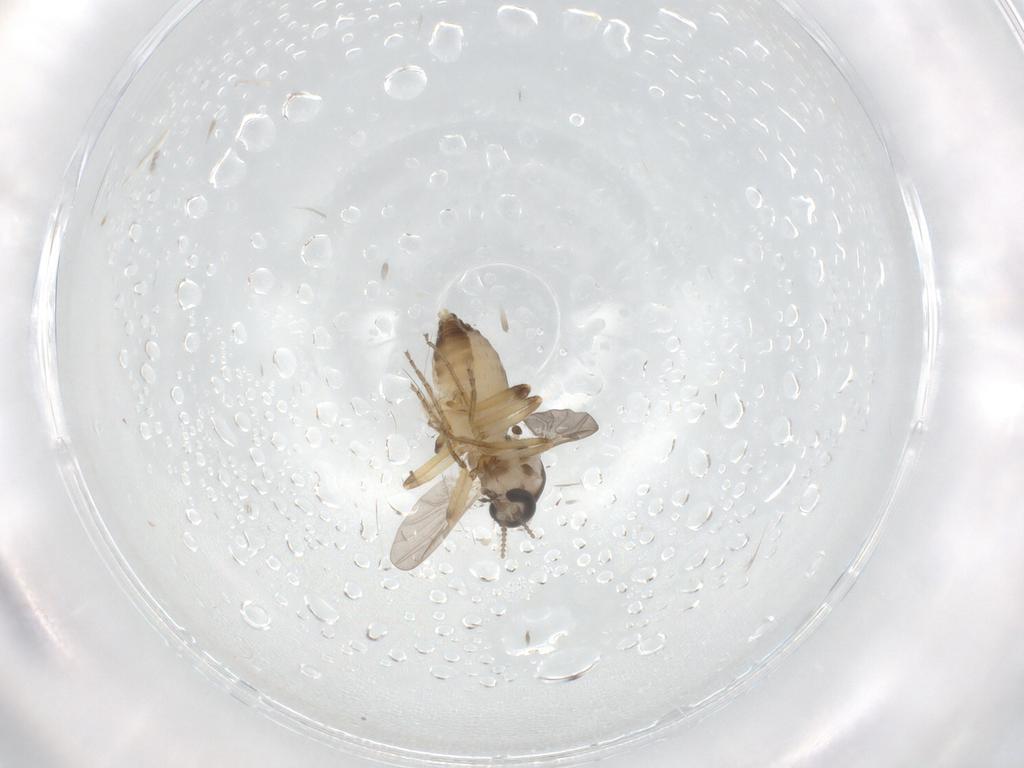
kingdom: Animalia
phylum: Arthropoda
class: Insecta
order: Diptera
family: Ceratopogonidae
